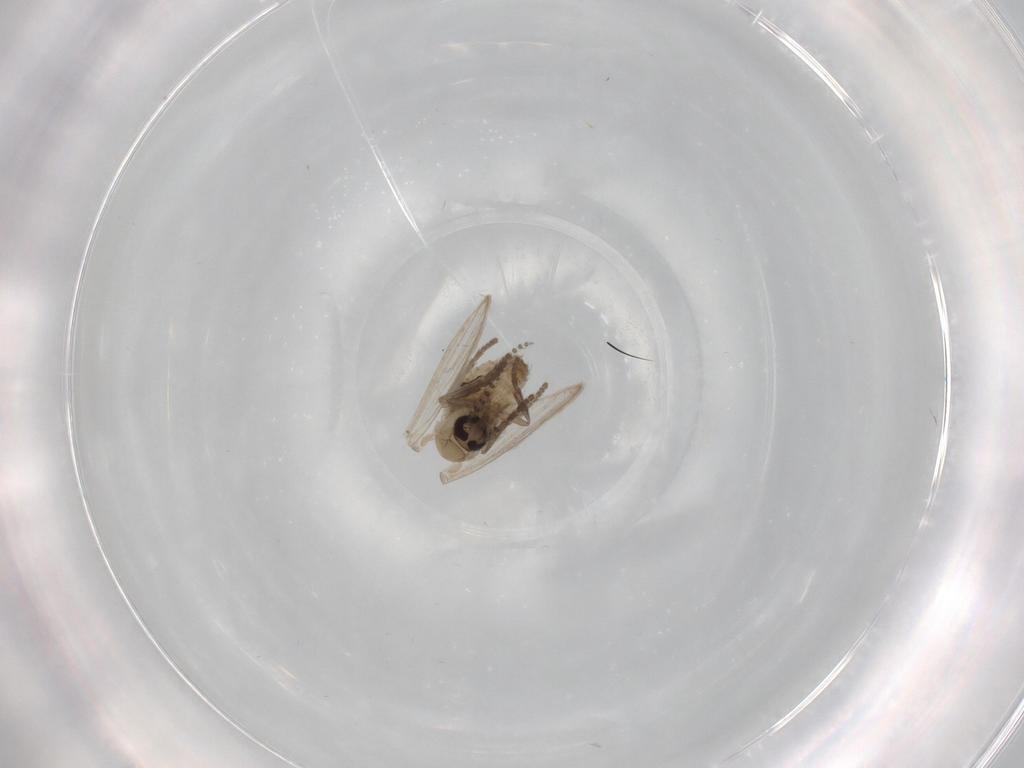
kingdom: Animalia
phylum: Arthropoda
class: Insecta
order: Diptera
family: Psychodidae
